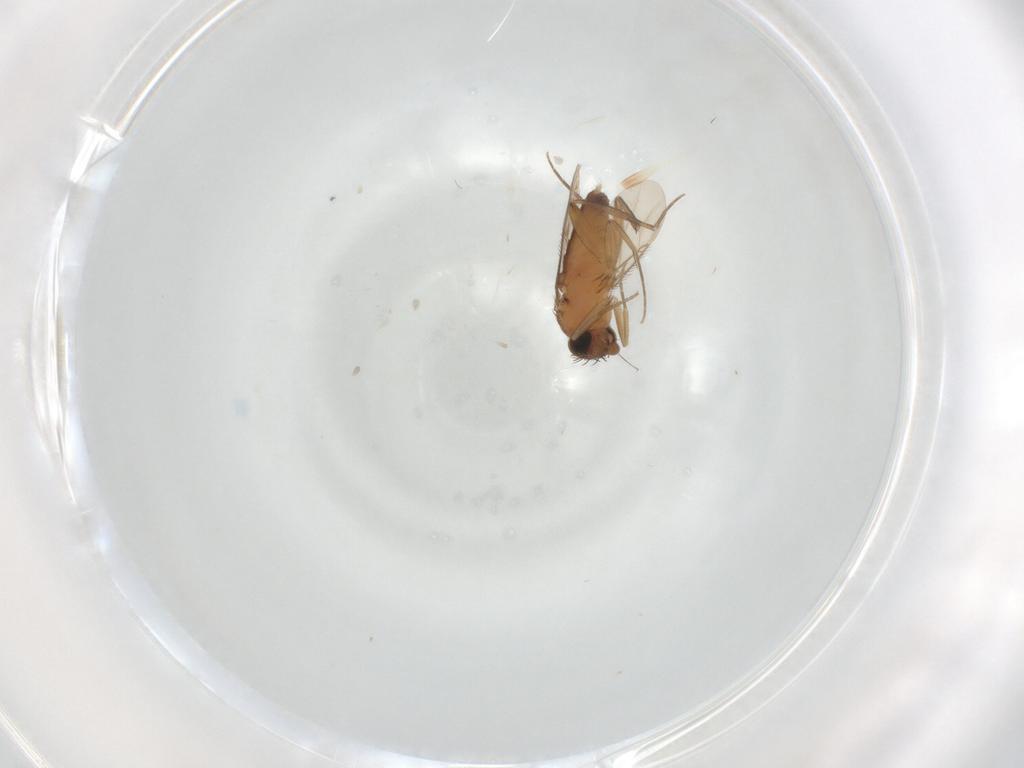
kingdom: Animalia
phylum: Arthropoda
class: Insecta
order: Diptera
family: Phoridae
